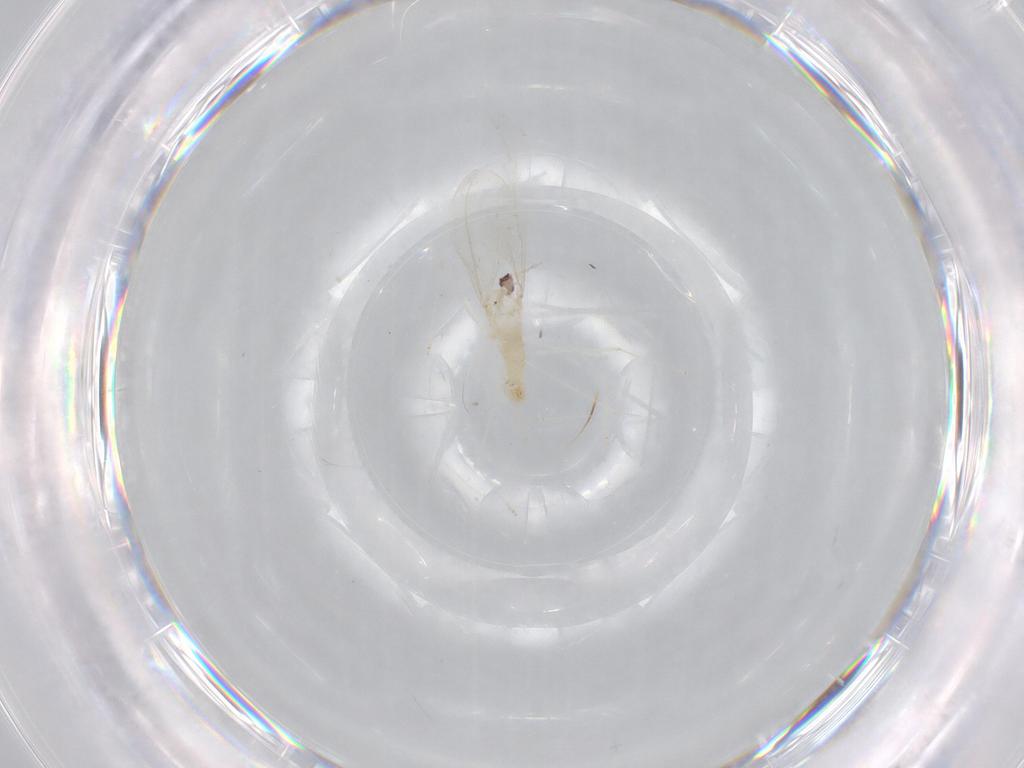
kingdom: Animalia
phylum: Arthropoda
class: Insecta
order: Diptera
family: Cecidomyiidae
